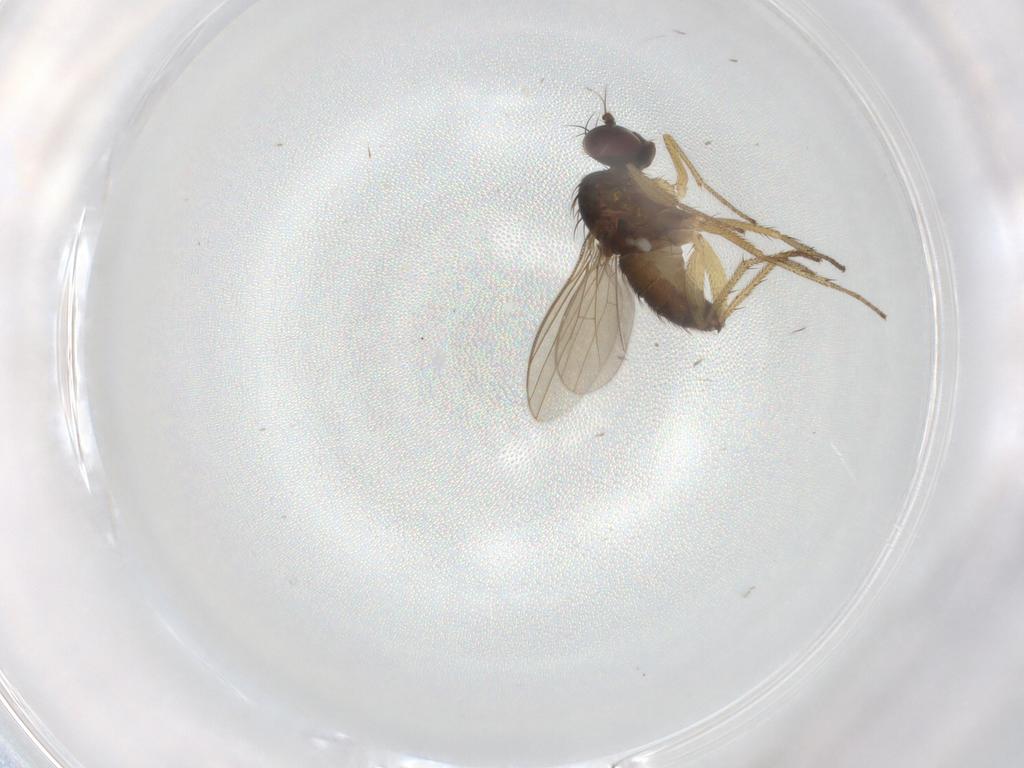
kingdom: Animalia
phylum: Arthropoda
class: Insecta
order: Diptera
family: Dolichopodidae
